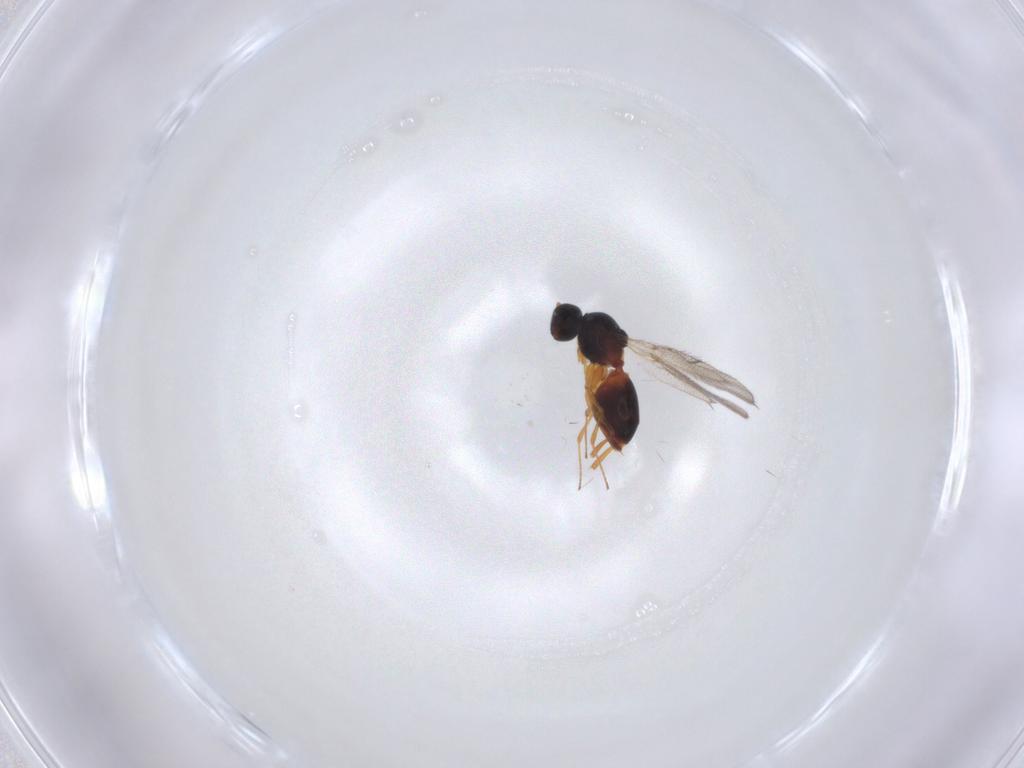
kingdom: Animalia
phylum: Arthropoda
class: Insecta
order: Hymenoptera
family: Figitidae
